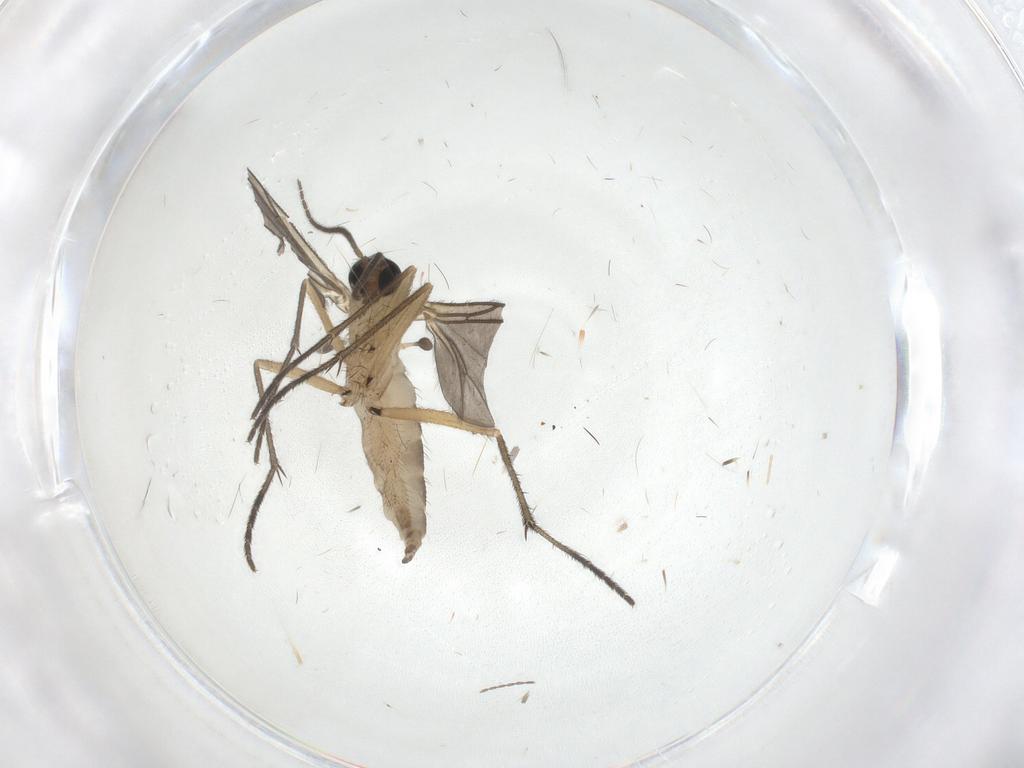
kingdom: Animalia
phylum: Arthropoda
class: Insecta
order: Diptera
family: Sciaridae
